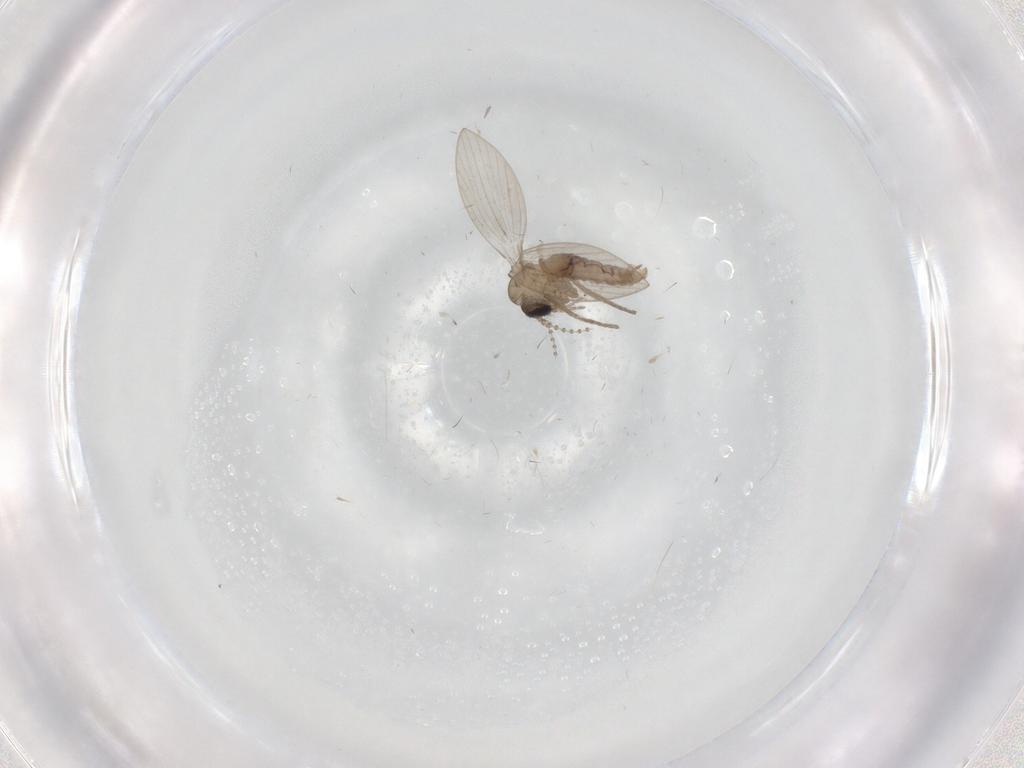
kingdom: Animalia
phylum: Arthropoda
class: Insecta
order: Diptera
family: Psychodidae
